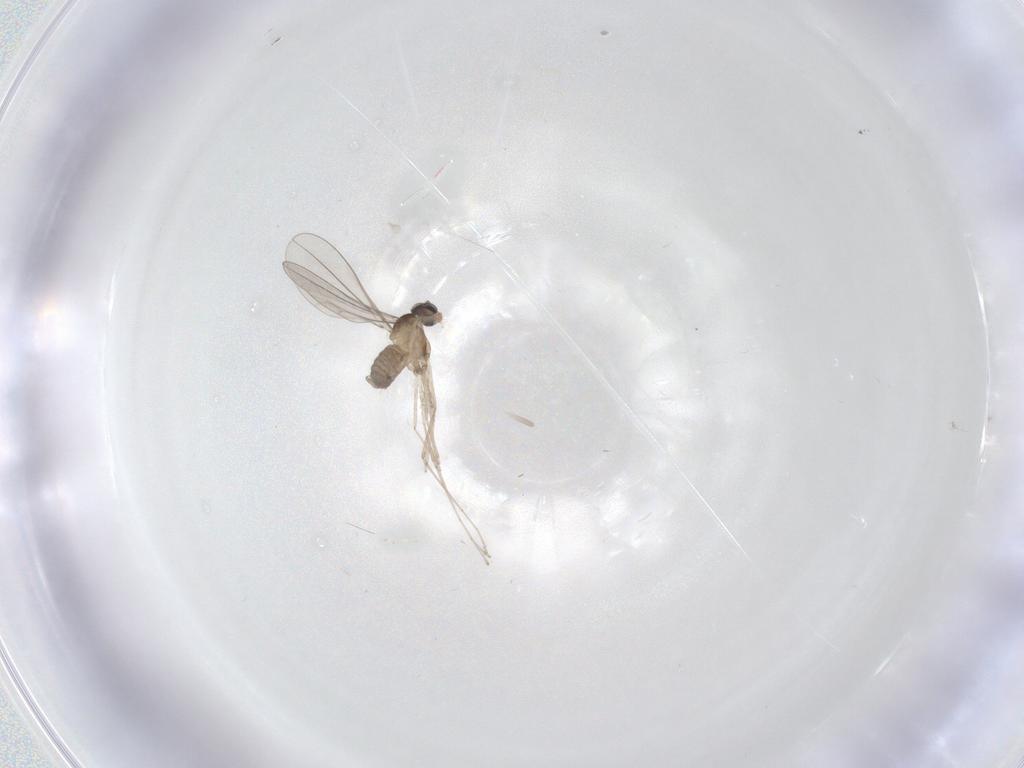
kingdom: Animalia
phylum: Arthropoda
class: Insecta
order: Diptera
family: Cecidomyiidae
